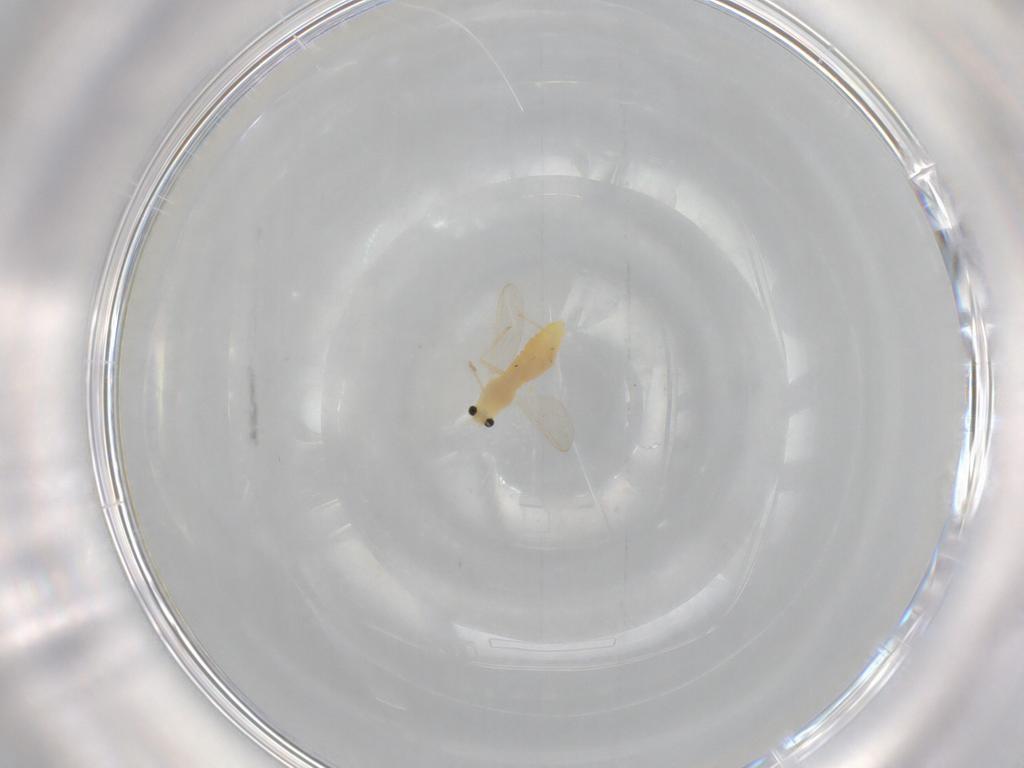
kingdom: Animalia
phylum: Arthropoda
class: Insecta
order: Diptera
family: Chironomidae
